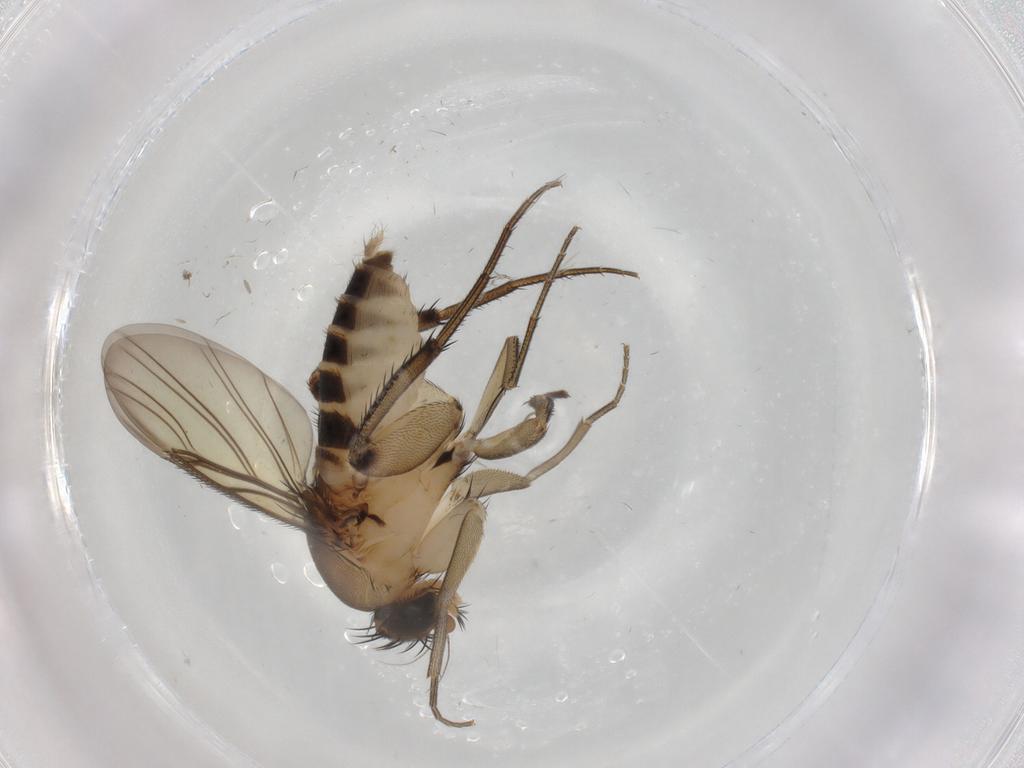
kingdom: Animalia
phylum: Arthropoda
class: Insecta
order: Diptera
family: Phoridae
